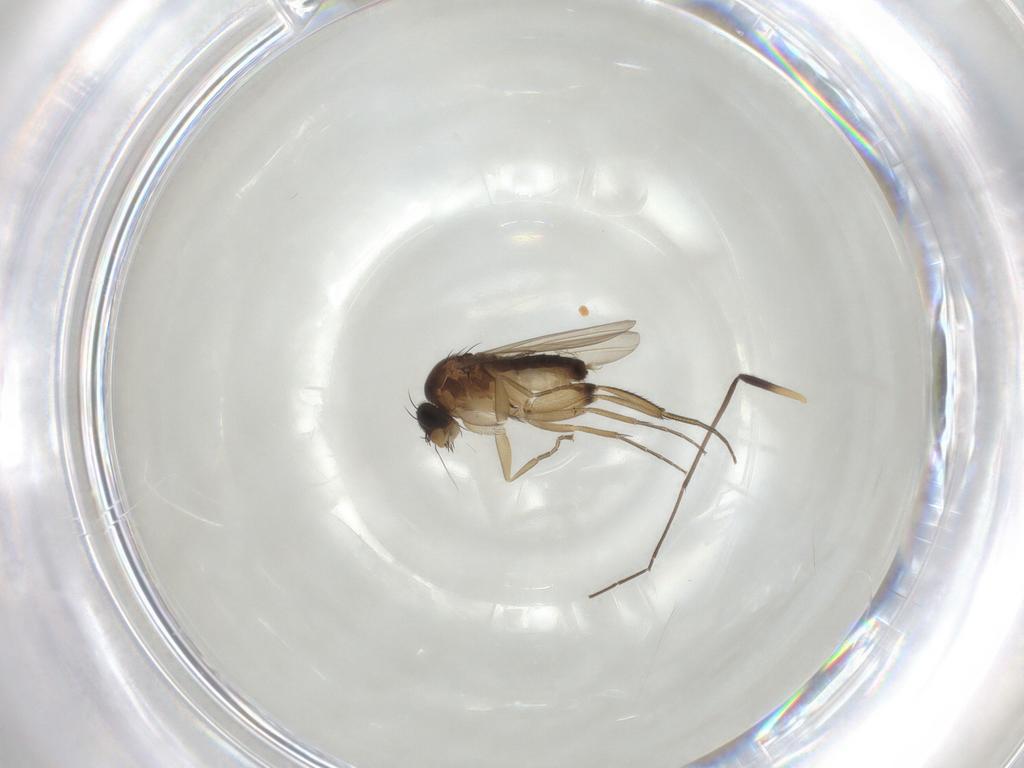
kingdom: Animalia
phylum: Arthropoda
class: Insecta
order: Diptera
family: Chironomidae
